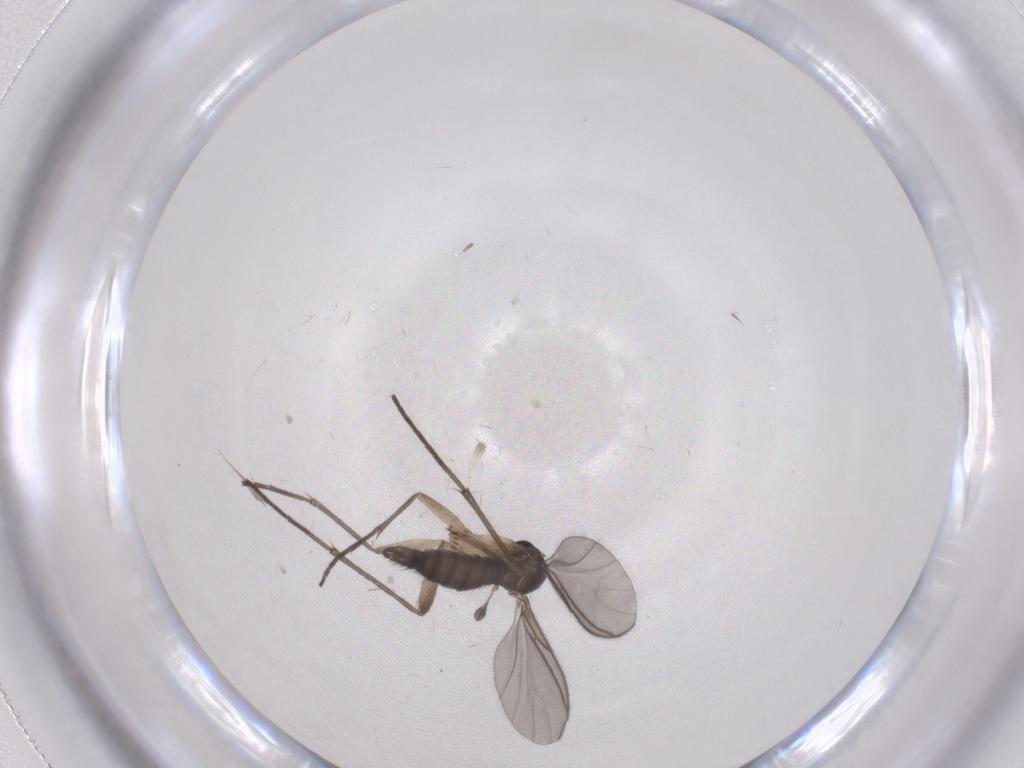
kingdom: Animalia
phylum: Arthropoda
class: Insecta
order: Diptera
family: Sciaridae
